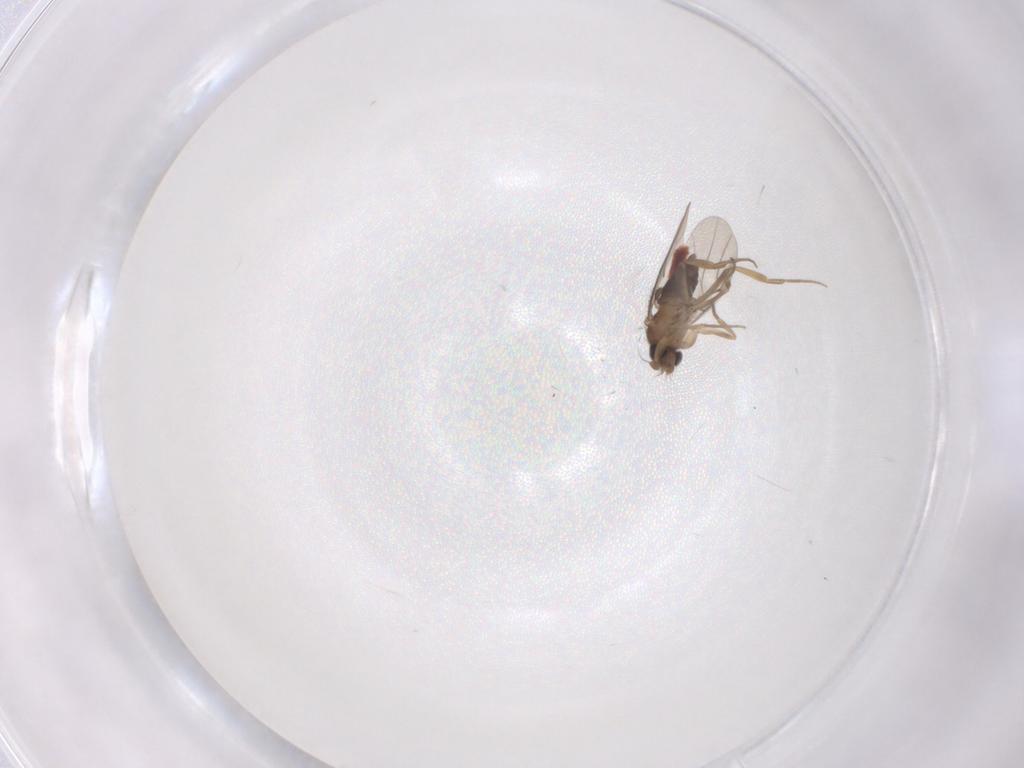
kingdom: Animalia
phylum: Arthropoda
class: Insecta
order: Diptera
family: Phoridae
